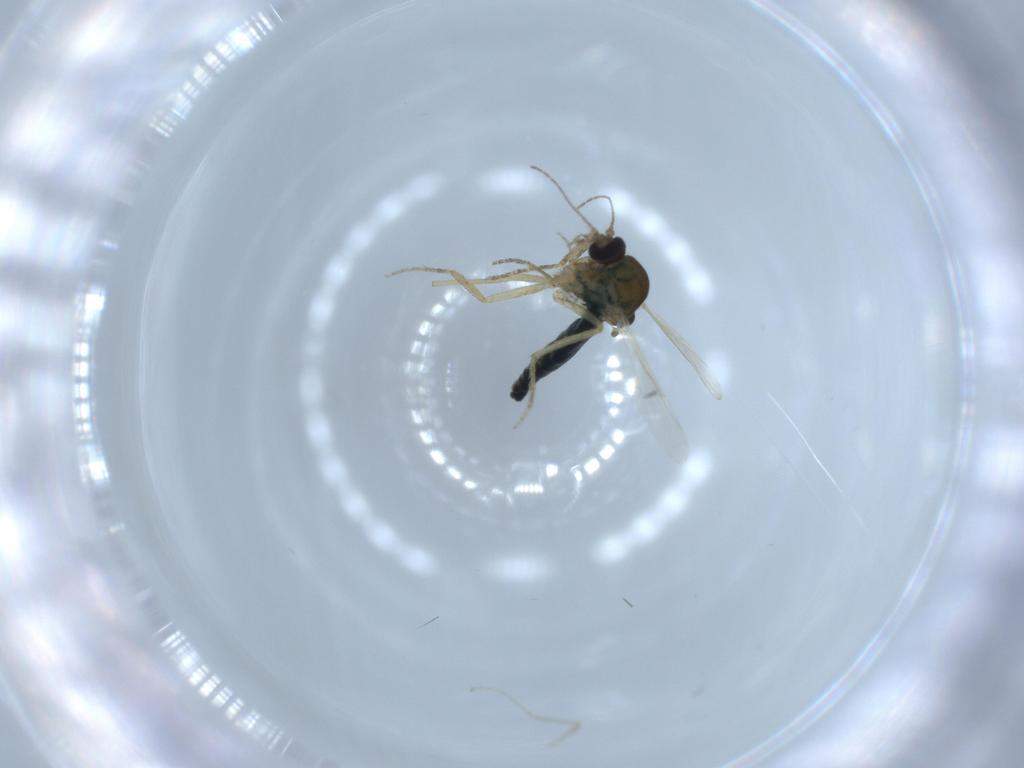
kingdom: Animalia
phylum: Arthropoda
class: Insecta
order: Diptera
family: Ceratopogonidae
